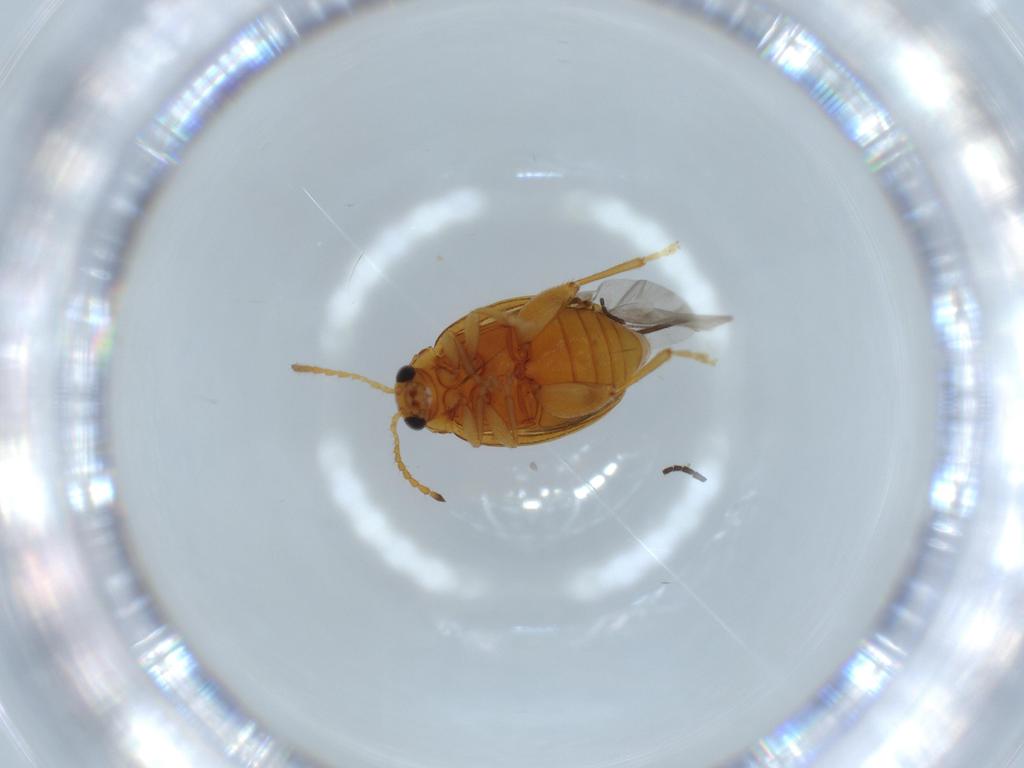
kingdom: Animalia
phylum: Arthropoda
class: Insecta
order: Coleoptera
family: Chrysomelidae
